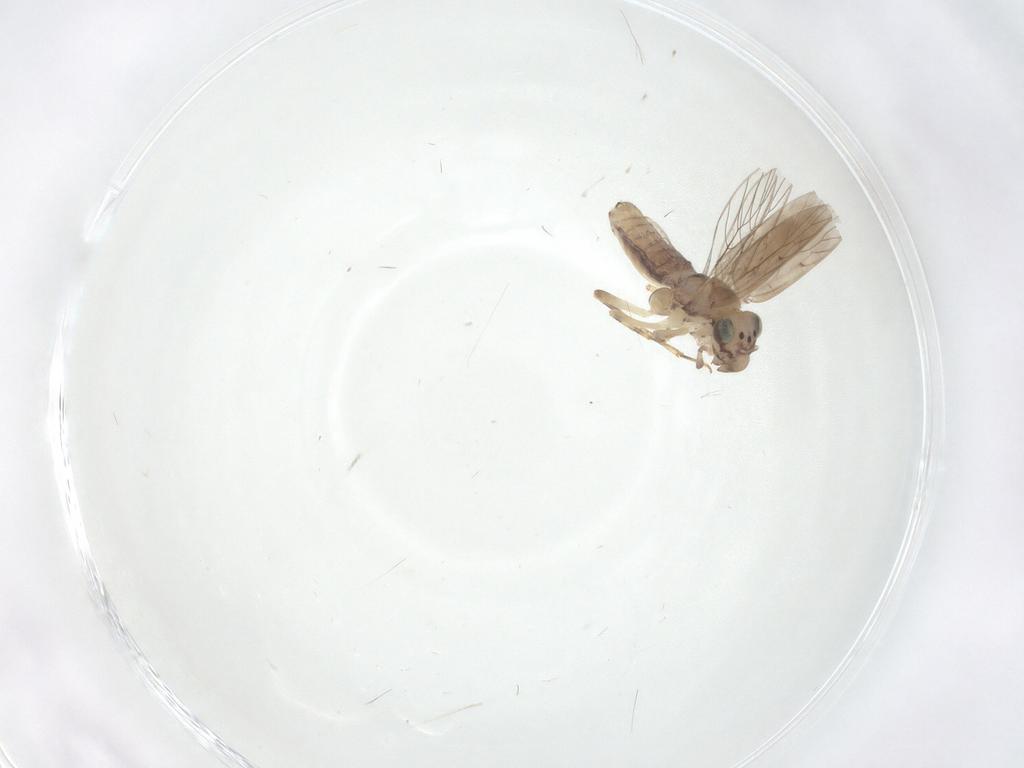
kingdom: Animalia
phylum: Arthropoda
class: Insecta
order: Psocodea
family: Lepidopsocidae
